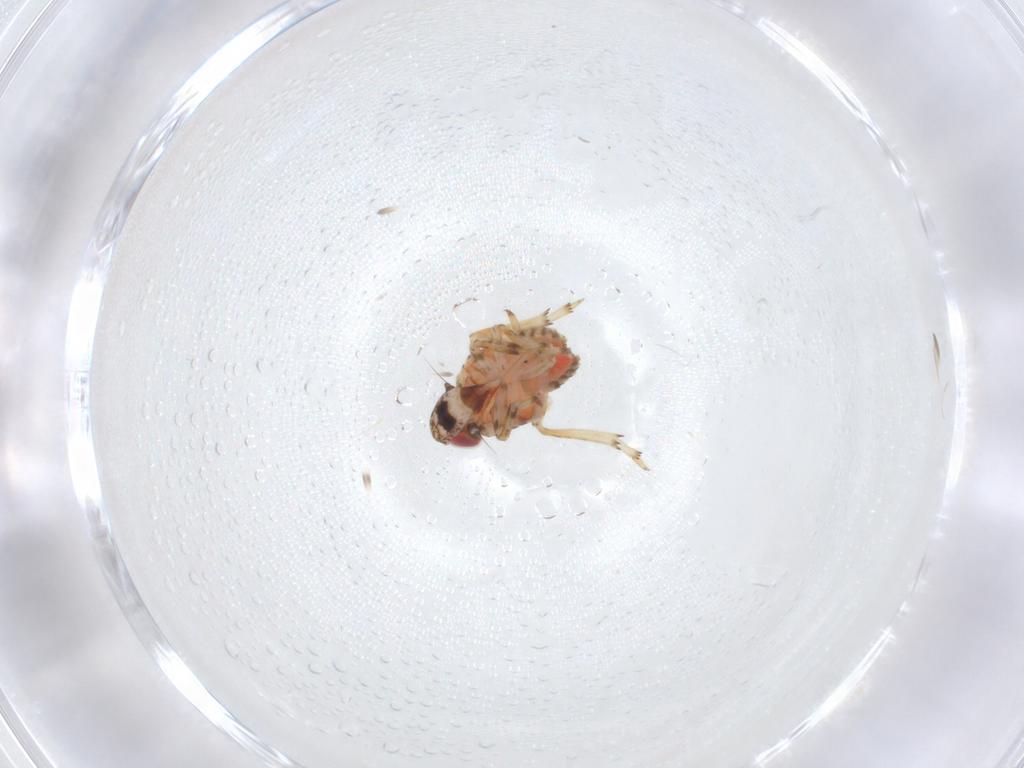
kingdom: Animalia
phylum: Arthropoda
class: Insecta
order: Hemiptera
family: Issidae
